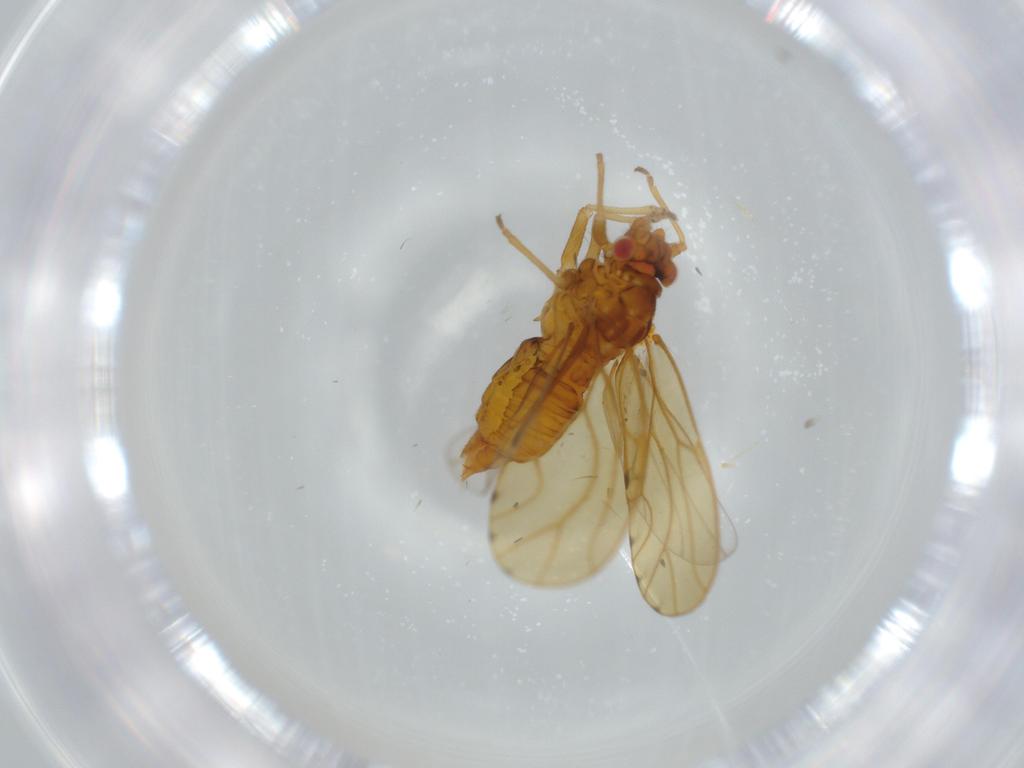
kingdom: Animalia
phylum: Arthropoda
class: Insecta
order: Hemiptera
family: Psylloidea_incertae_sedis
